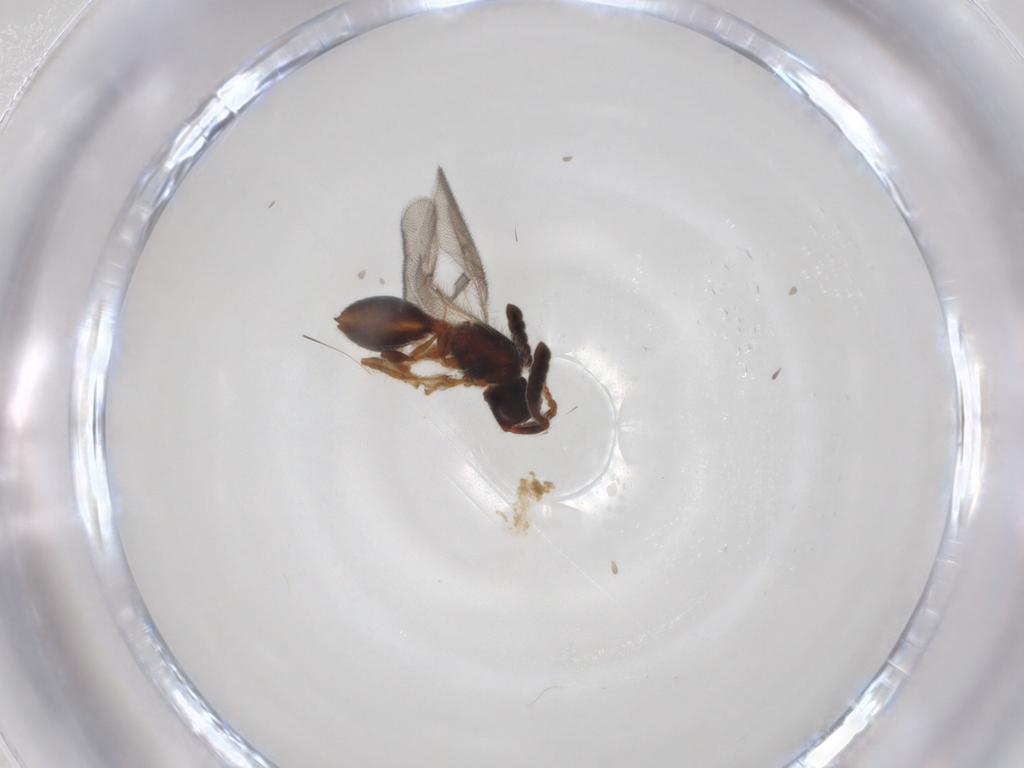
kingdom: Animalia
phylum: Arthropoda
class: Insecta
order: Hymenoptera
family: Diapriidae
